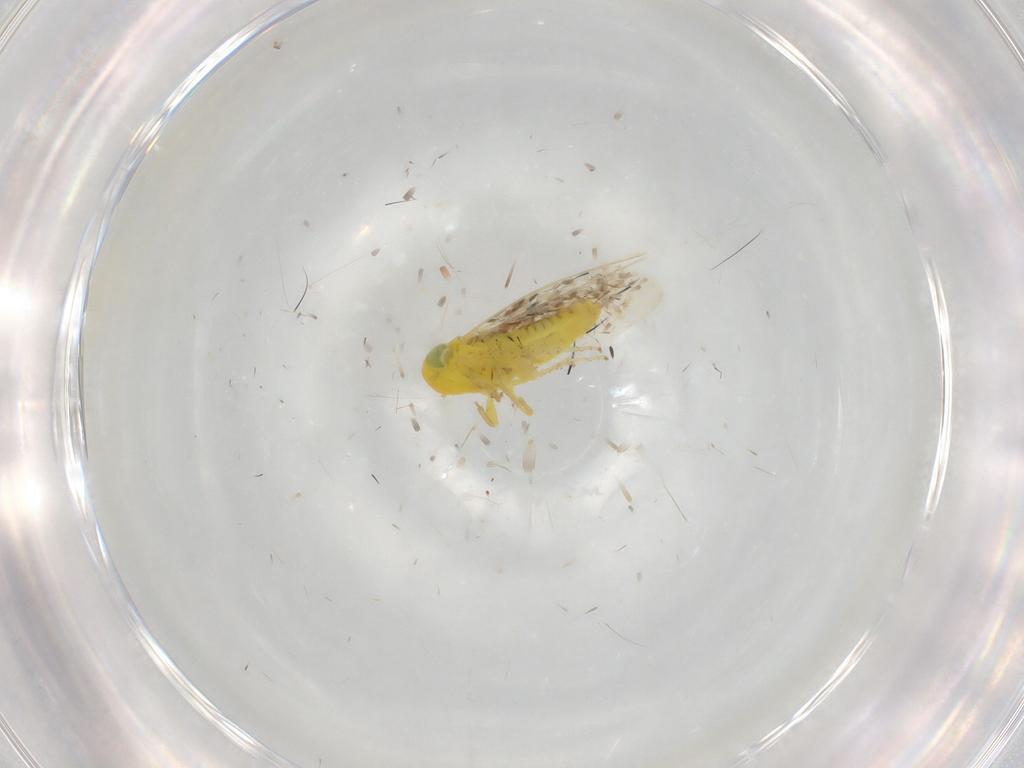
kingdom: Animalia
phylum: Arthropoda
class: Insecta
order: Hemiptera
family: Cicadellidae
